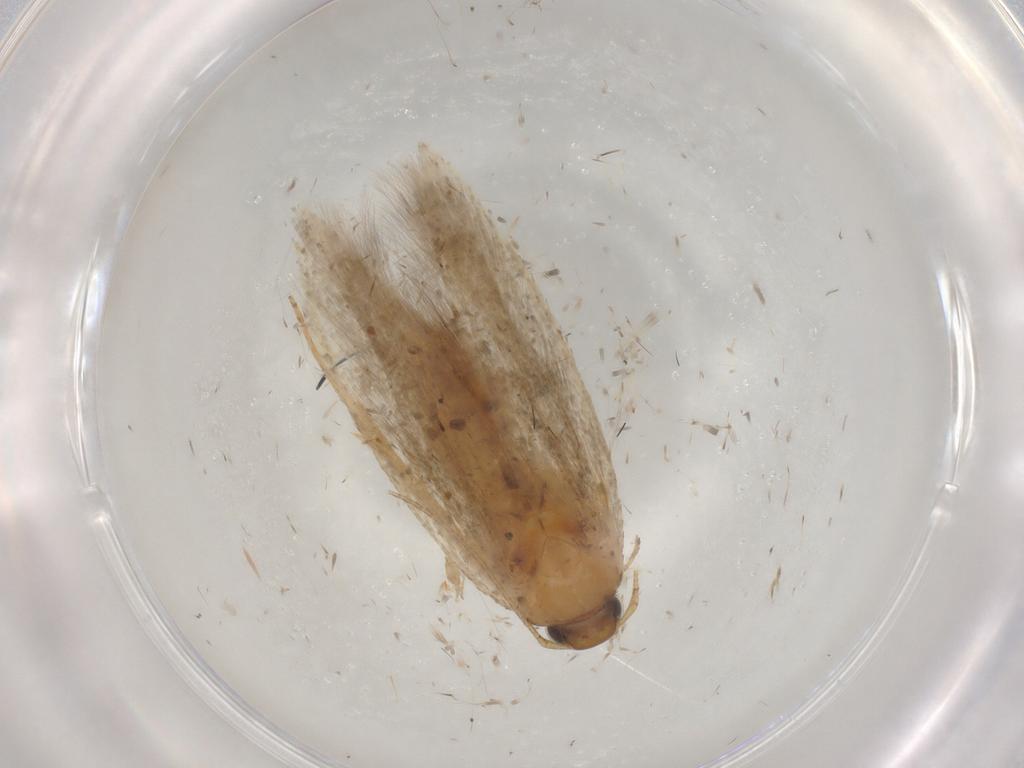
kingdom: Animalia
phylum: Arthropoda
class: Insecta
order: Lepidoptera
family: Gelechiidae
